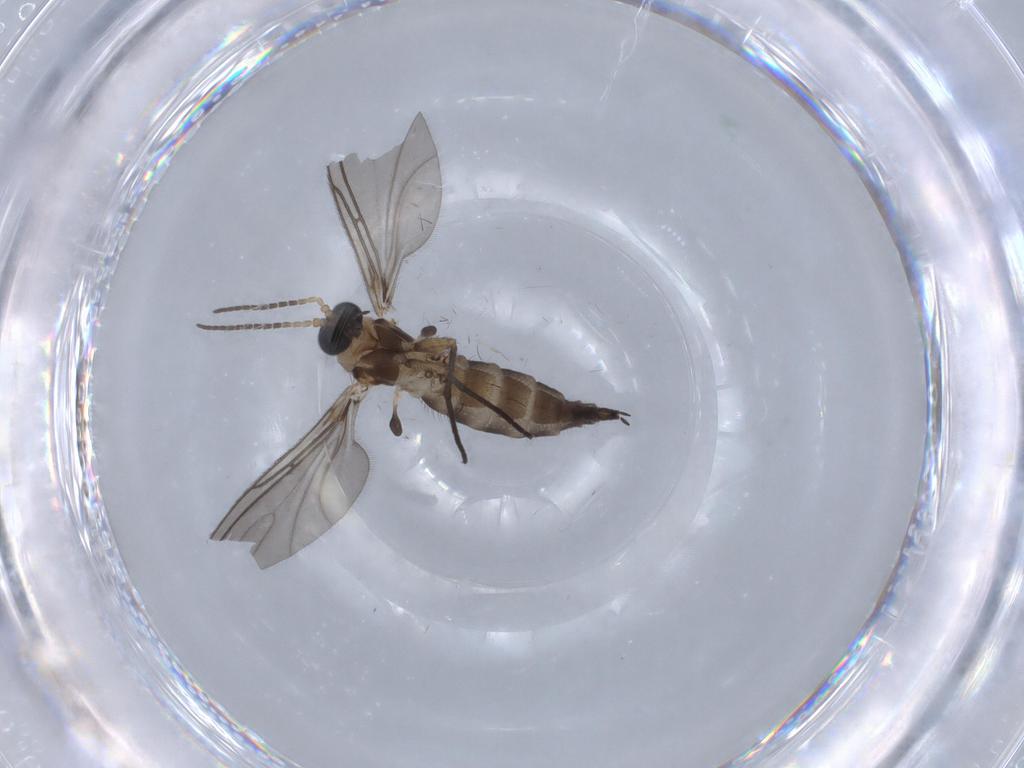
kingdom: Animalia
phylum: Arthropoda
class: Insecta
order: Diptera
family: Sciaridae
